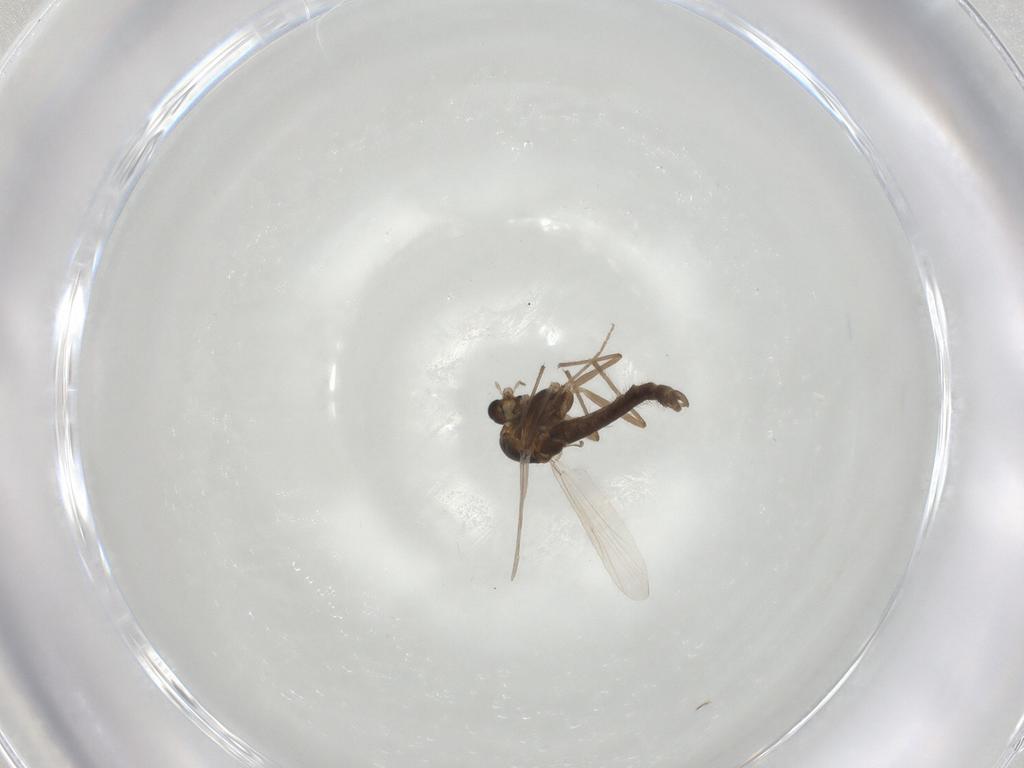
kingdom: Animalia
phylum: Arthropoda
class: Insecta
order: Diptera
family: Chironomidae
